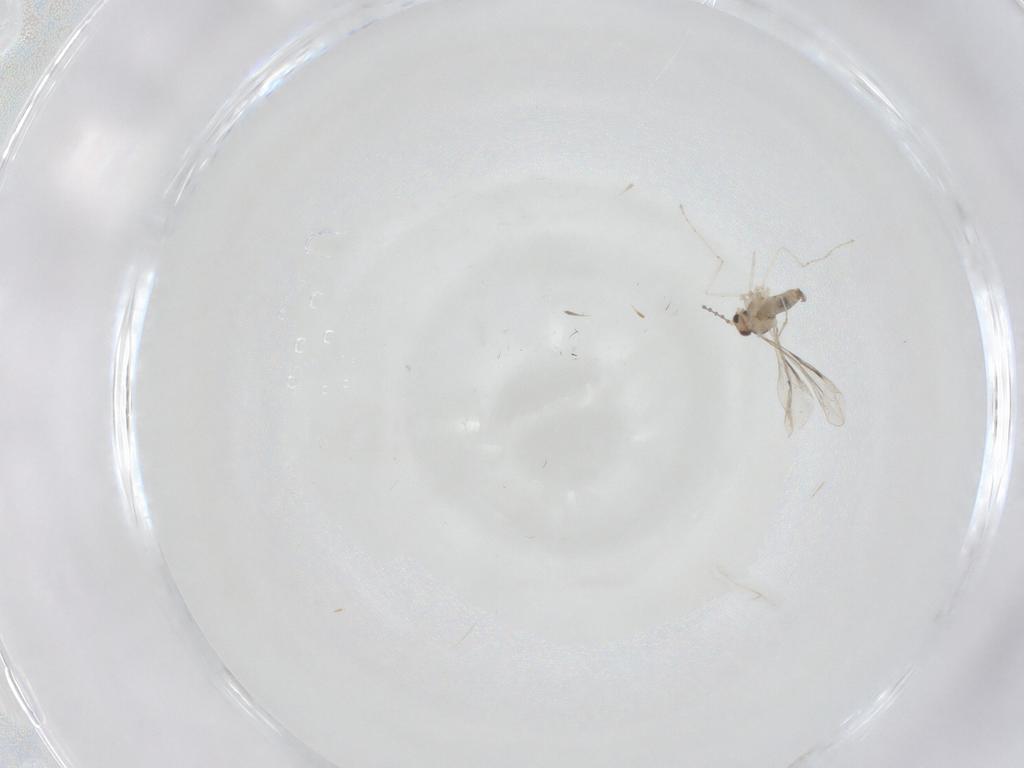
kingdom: Animalia
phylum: Arthropoda
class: Insecta
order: Diptera
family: Cecidomyiidae
